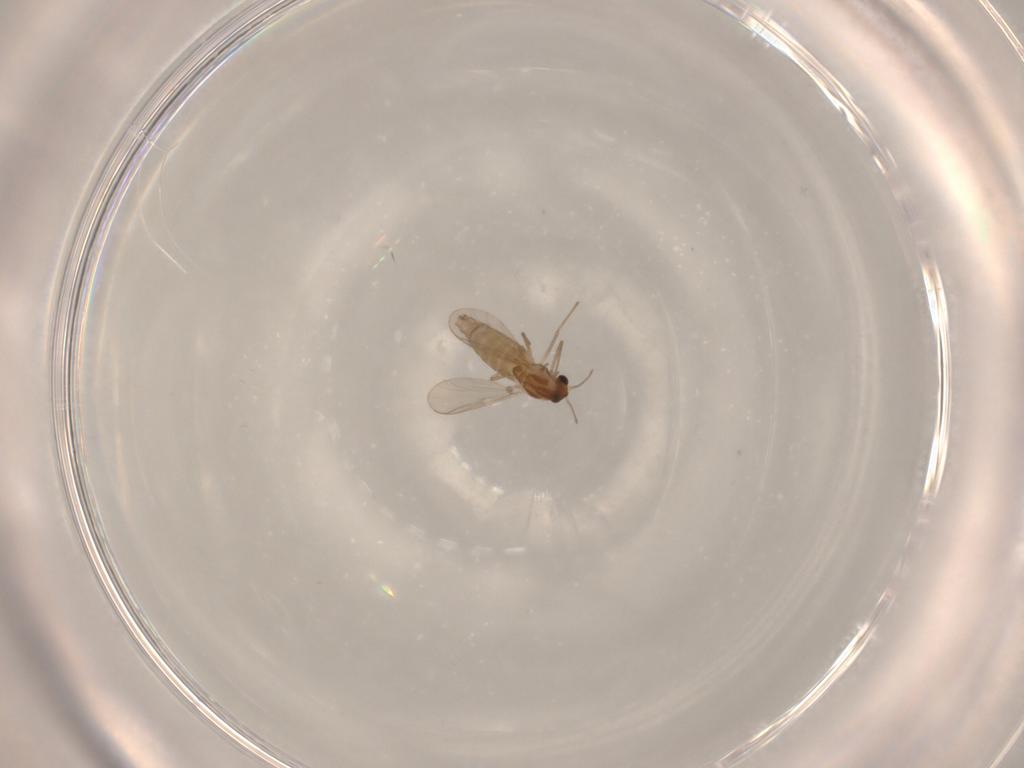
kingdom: Animalia
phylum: Arthropoda
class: Insecta
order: Diptera
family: Chironomidae
